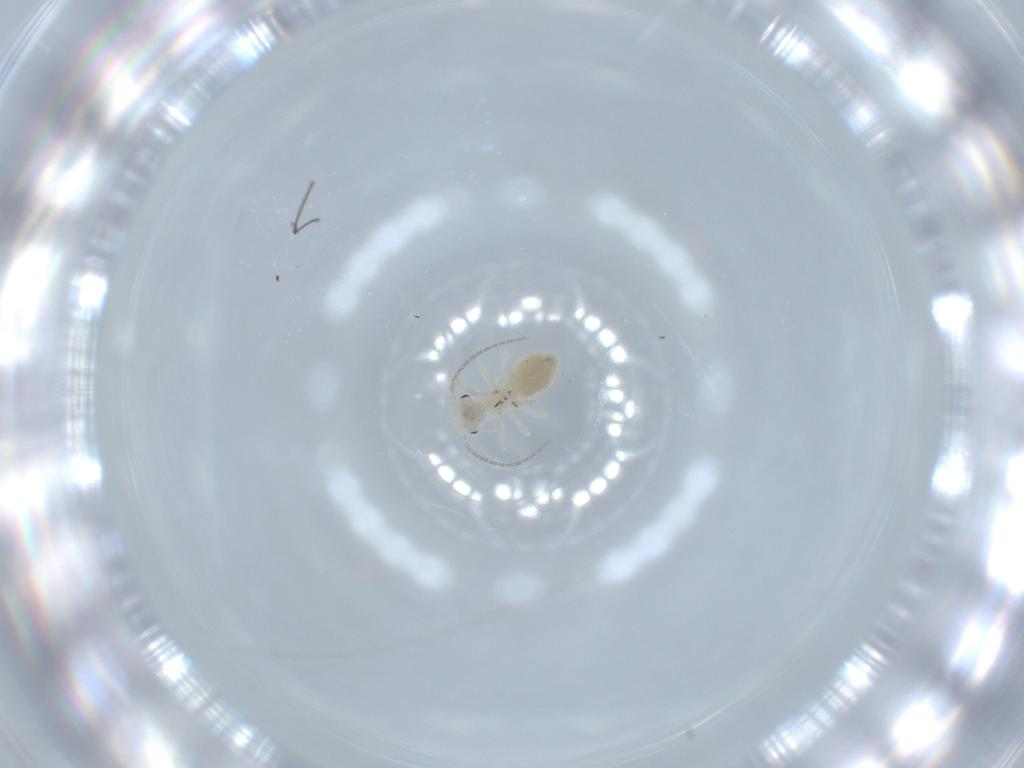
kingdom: Animalia
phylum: Arthropoda
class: Insecta
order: Psocodea
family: Caeciliusidae
